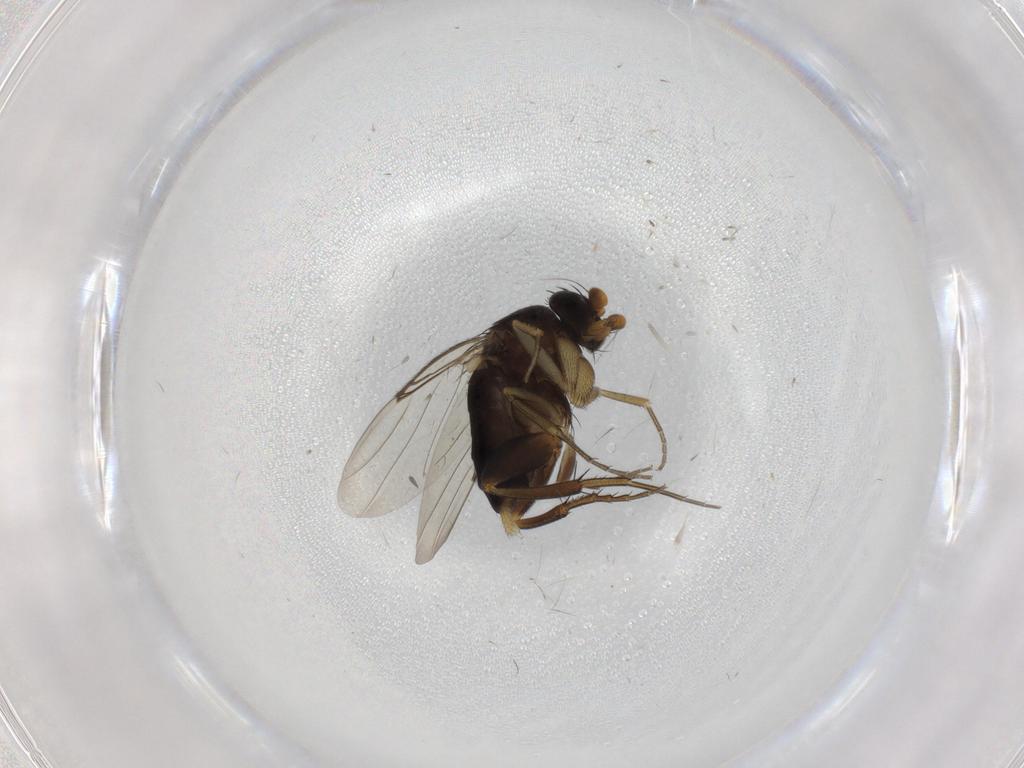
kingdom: Animalia
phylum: Arthropoda
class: Insecta
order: Diptera
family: Phoridae
